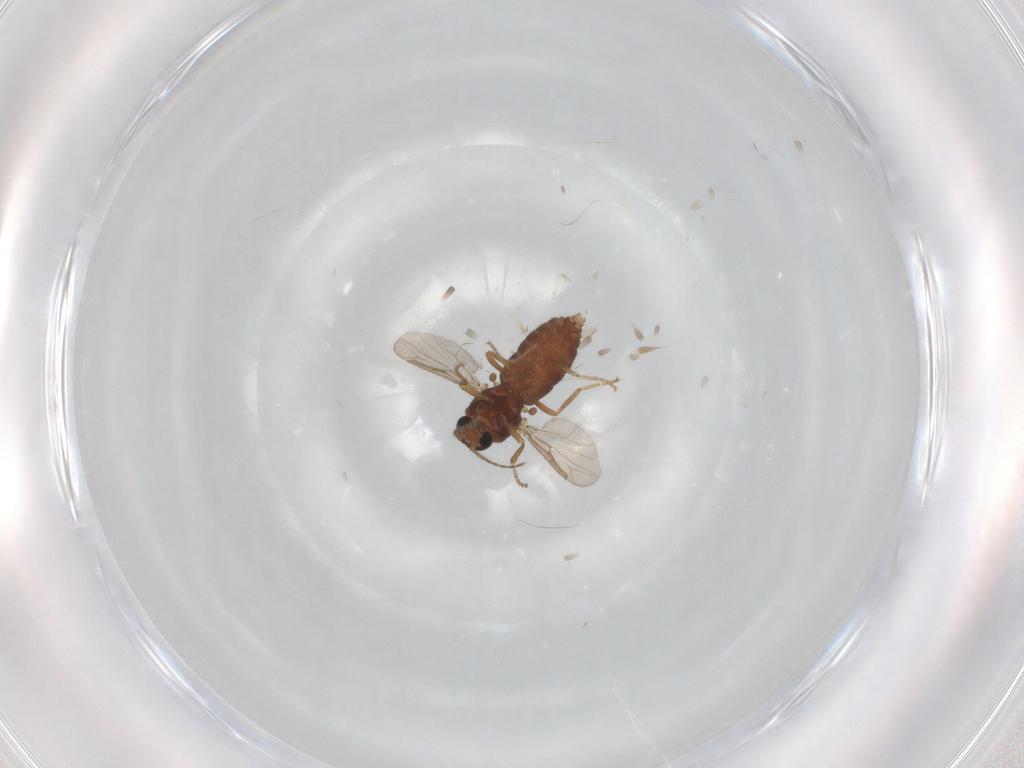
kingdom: Animalia
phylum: Arthropoda
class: Insecta
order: Diptera
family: Ceratopogonidae
